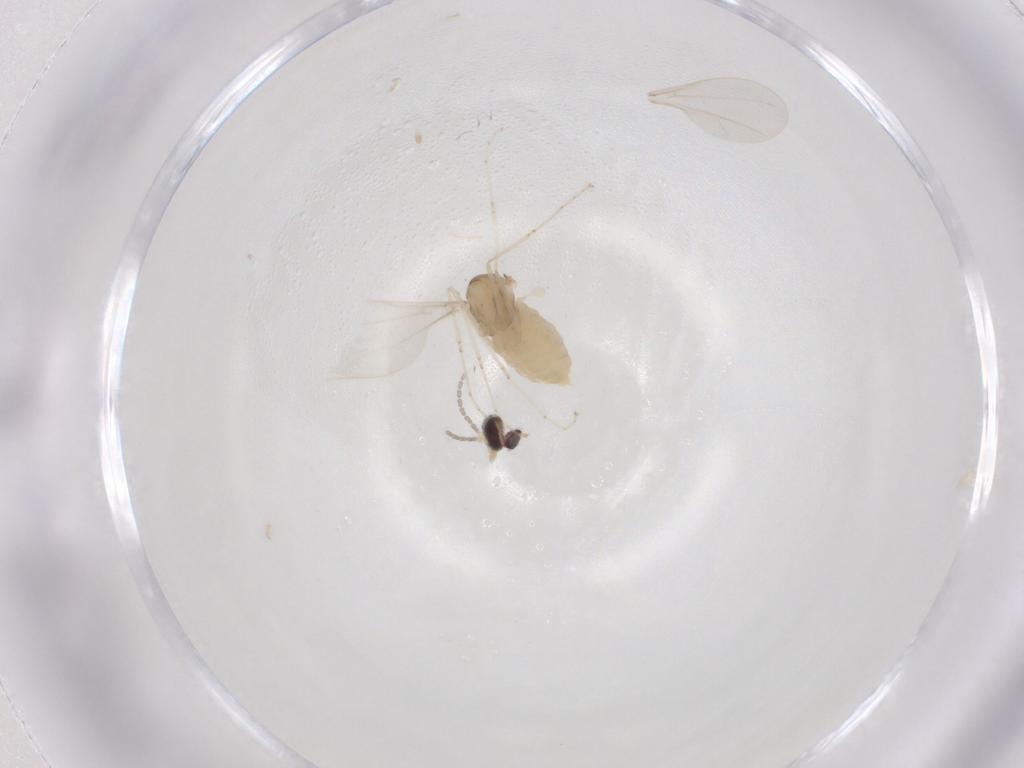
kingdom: Animalia
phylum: Arthropoda
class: Insecta
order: Diptera
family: Cecidomyiidae
